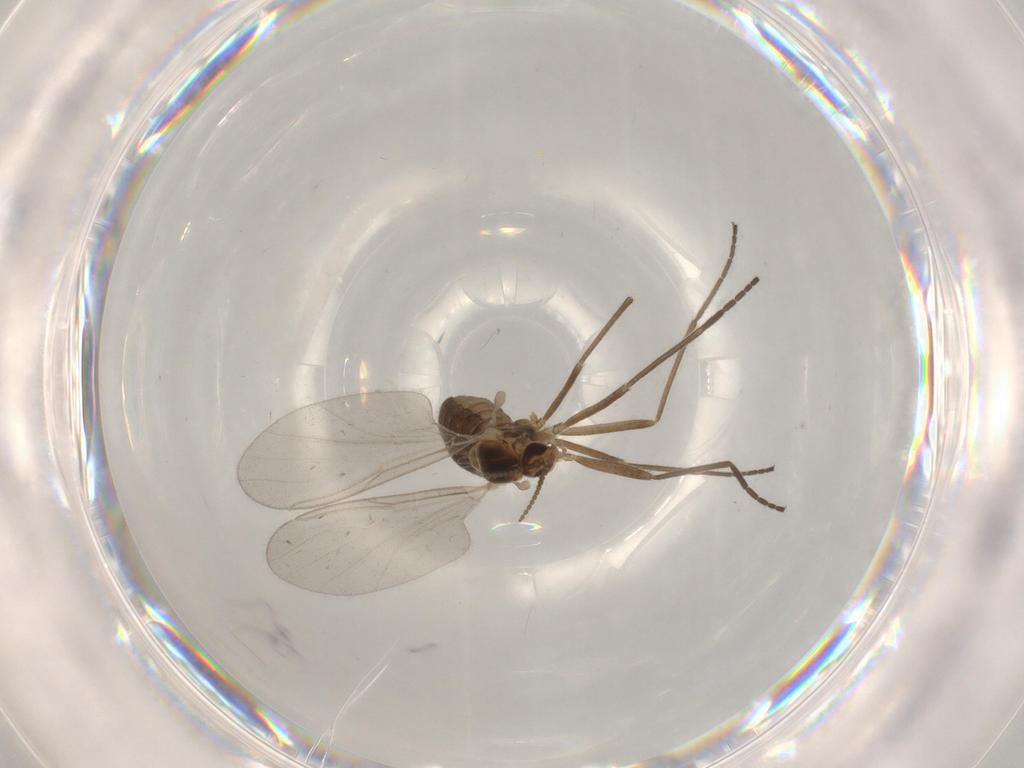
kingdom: Animalia
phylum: Arthropoda
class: Insecta
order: Diptera
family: Cecidomyiidae
